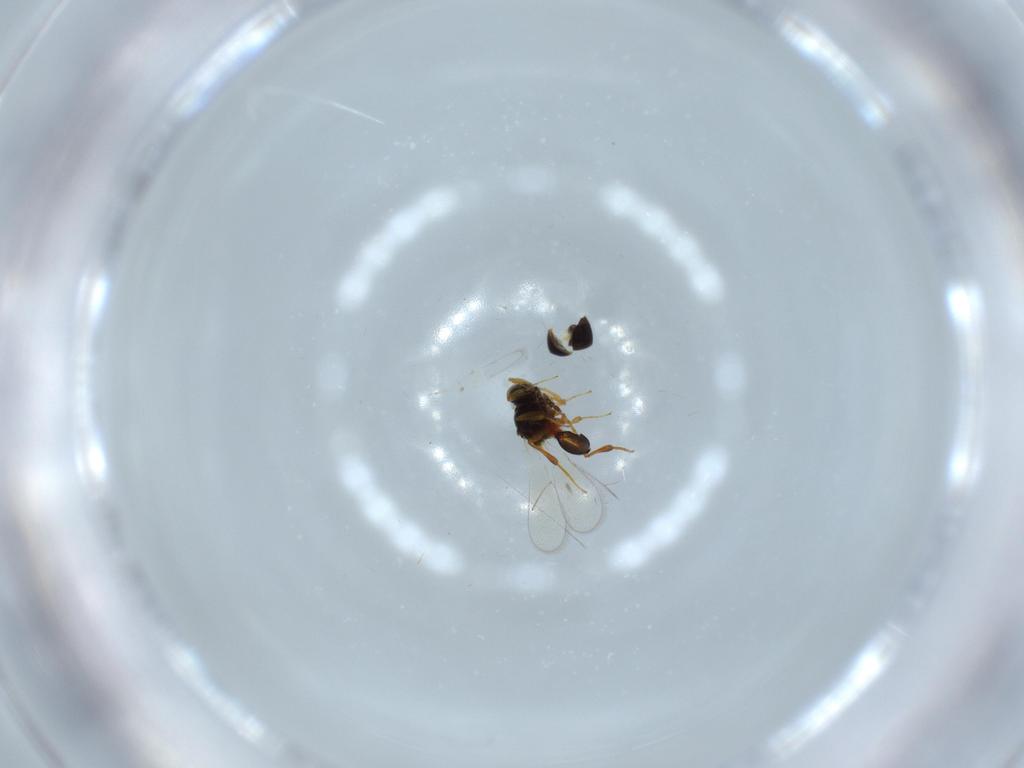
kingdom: Animalia
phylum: Arthropoda
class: Insecta
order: Hymenoptera
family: Platygastridae
